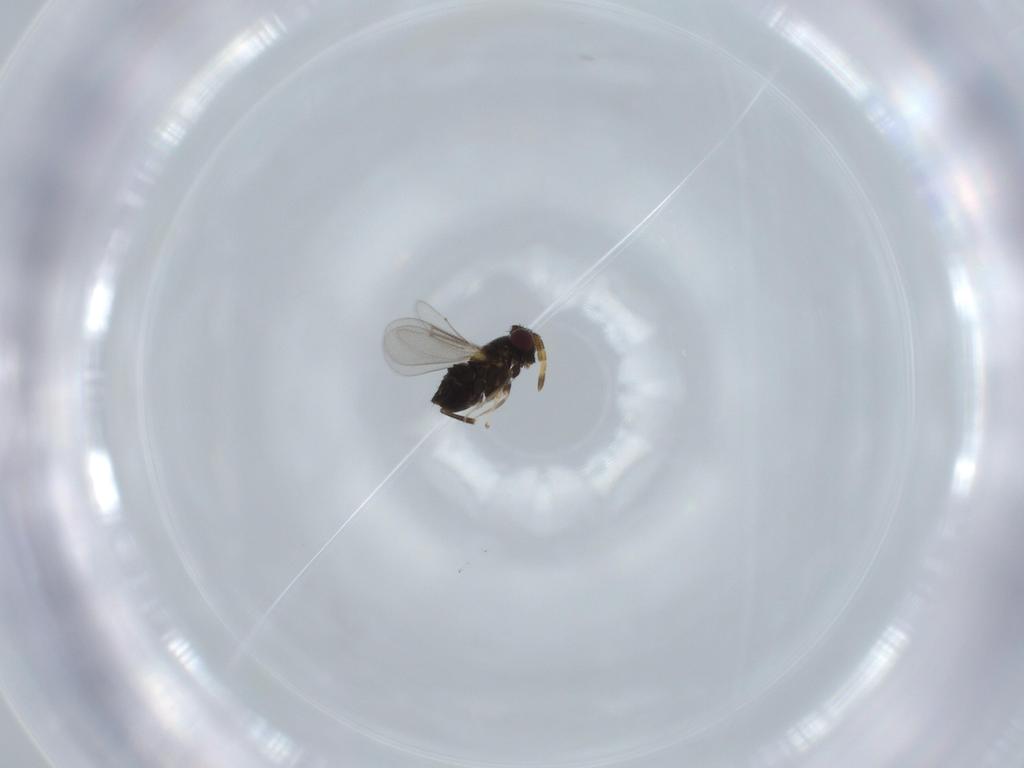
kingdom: Animalia
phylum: Arthropoda
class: Insecta
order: Hymenoptera
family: Aphelinidae
